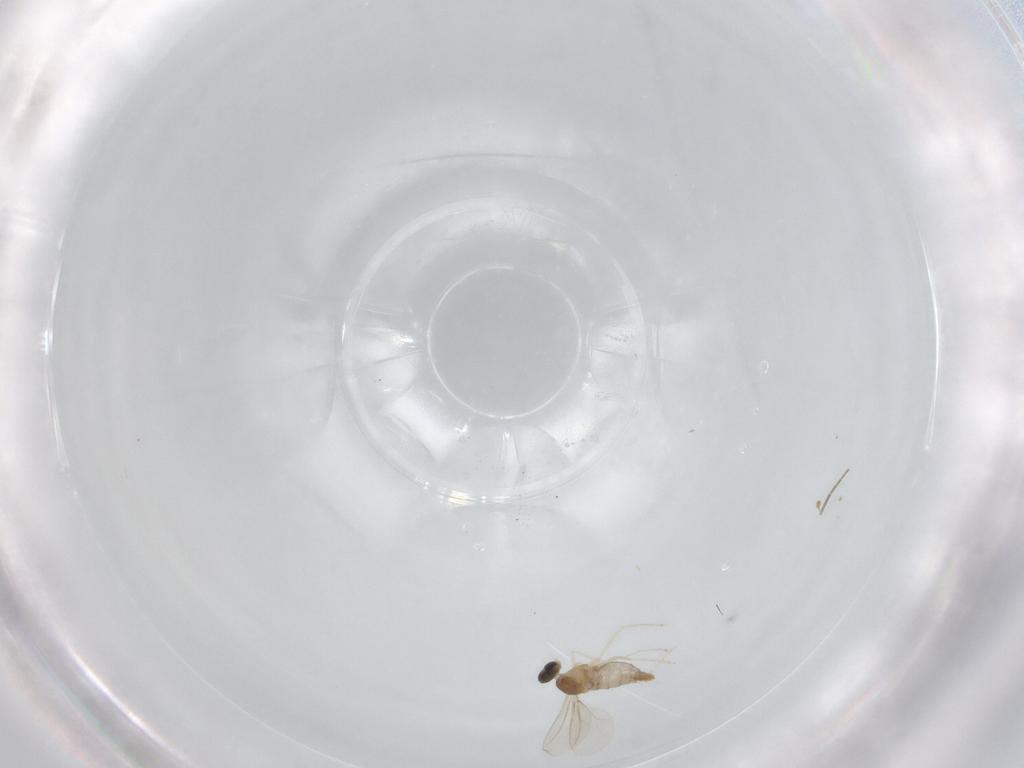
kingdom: Animalia
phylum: Arthropoda
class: Insecta
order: Diptera
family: Cecidomyiidae
